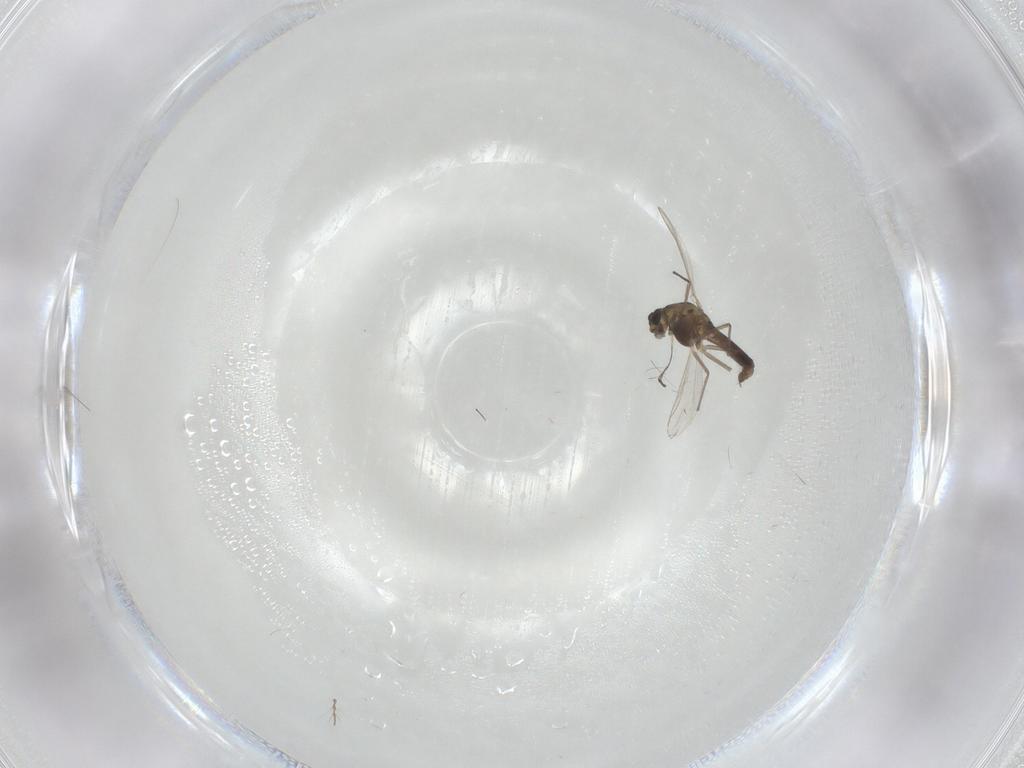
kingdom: Animalia
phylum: Arthropoda
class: Insecta
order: Diptera
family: Chironomidae
